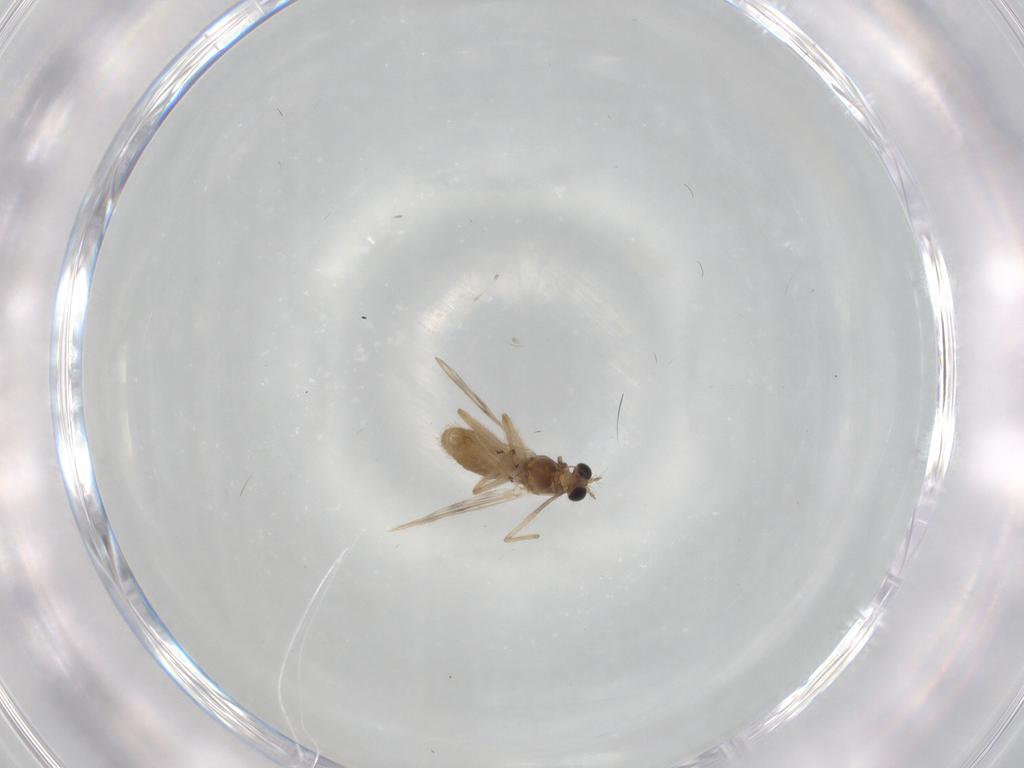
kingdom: Animalia
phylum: Arthropoda
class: Insecta
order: Diptera
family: Chironomidae
